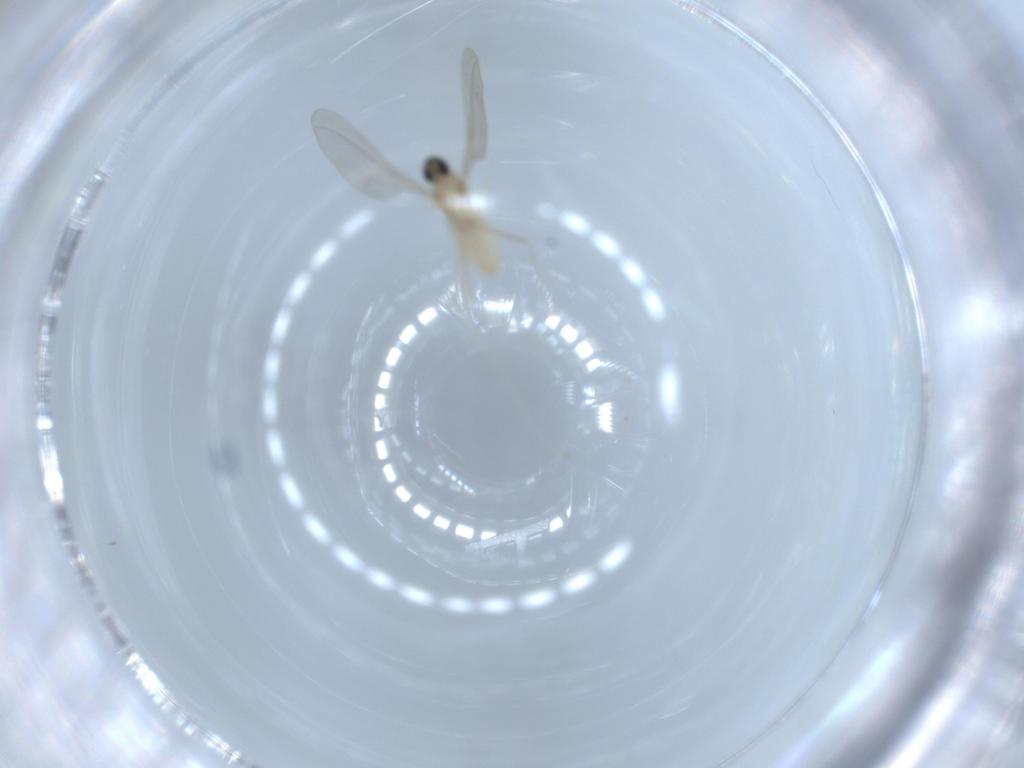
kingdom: Animalia
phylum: Arthropoda
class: Insecta
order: Diptera
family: Cecidomyiidae
